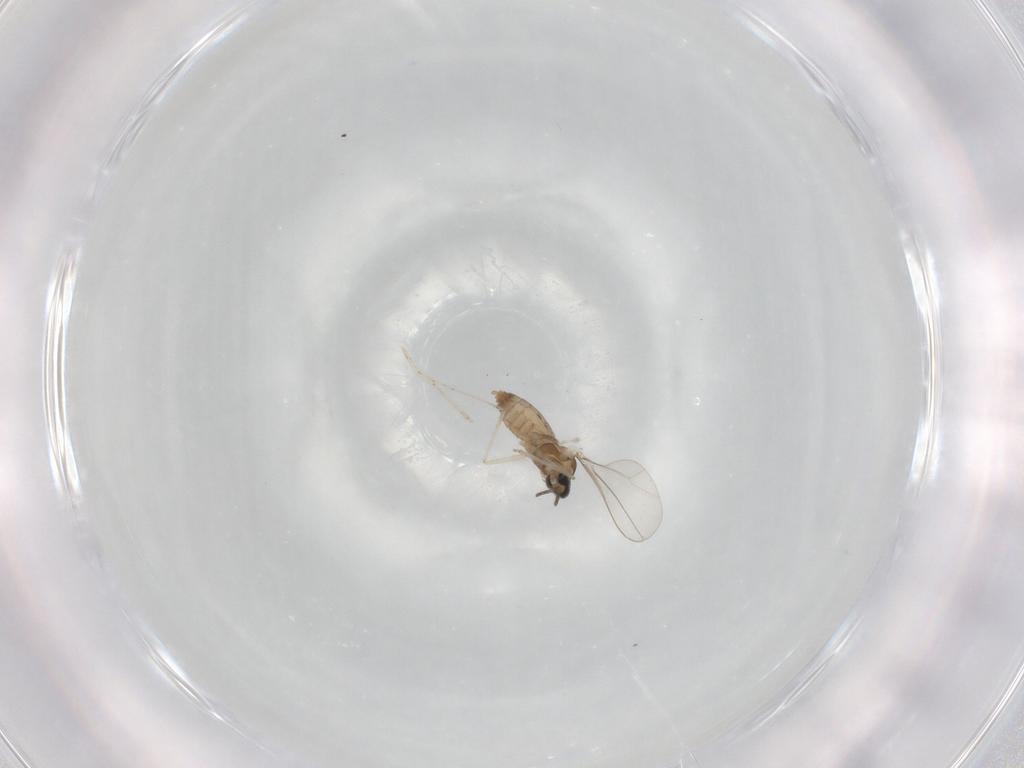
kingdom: Animalia
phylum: Arthropoda
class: Insecta
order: Diptera
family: Cecidomyiidae
